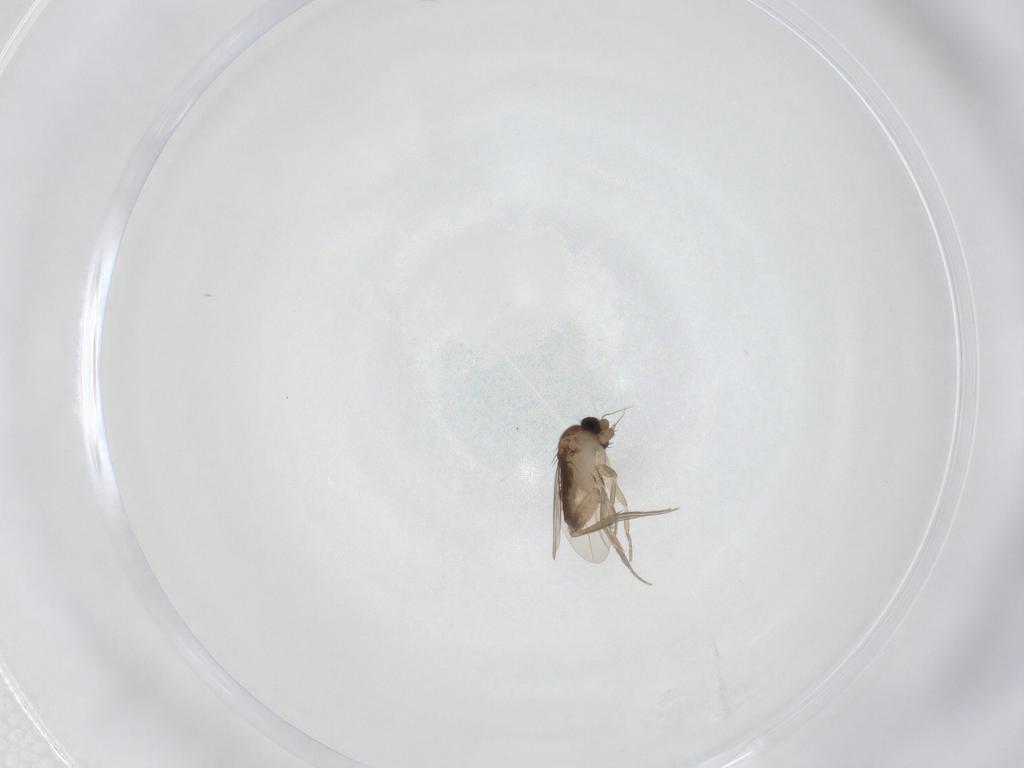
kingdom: Animalia
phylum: Arthropoda
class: Insecta
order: Diptera
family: Phoridae
